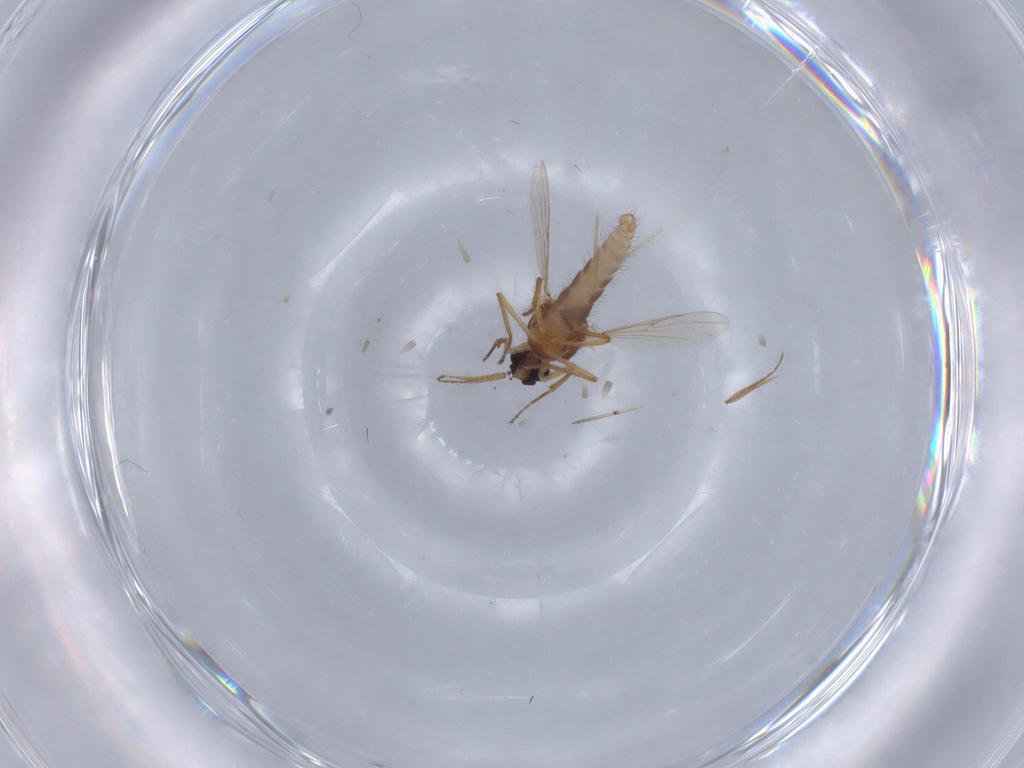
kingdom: Animalia
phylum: Arthropoda
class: Insecta
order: Diptera
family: Ceratopogonidae
